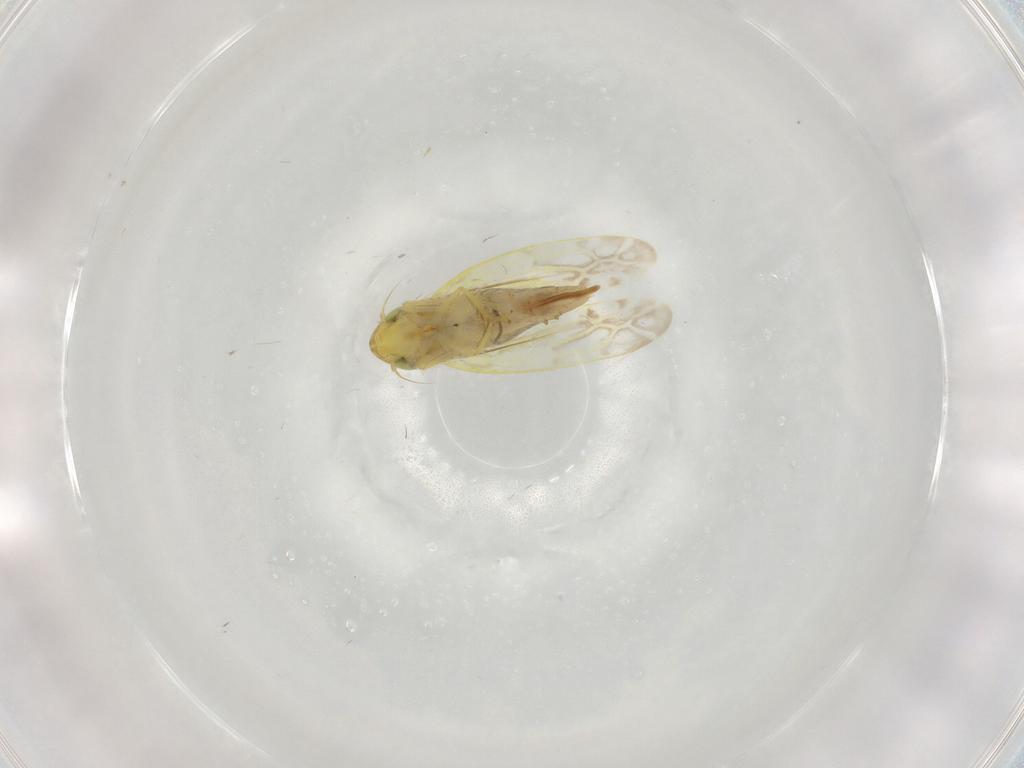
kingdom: Animalia
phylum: Arthropoda
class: Insecta
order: Hemiptera
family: Cicadellidae
